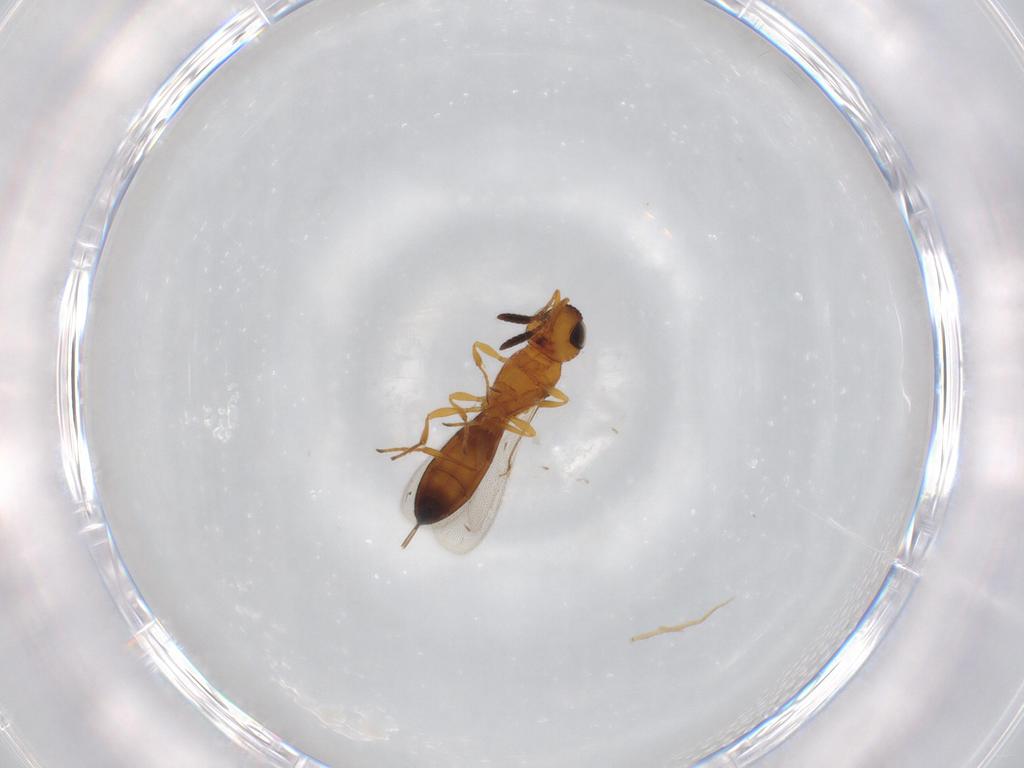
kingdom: Animalia
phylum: Arthropoda
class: Insecta
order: Hymenoptera
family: Scelionidae
